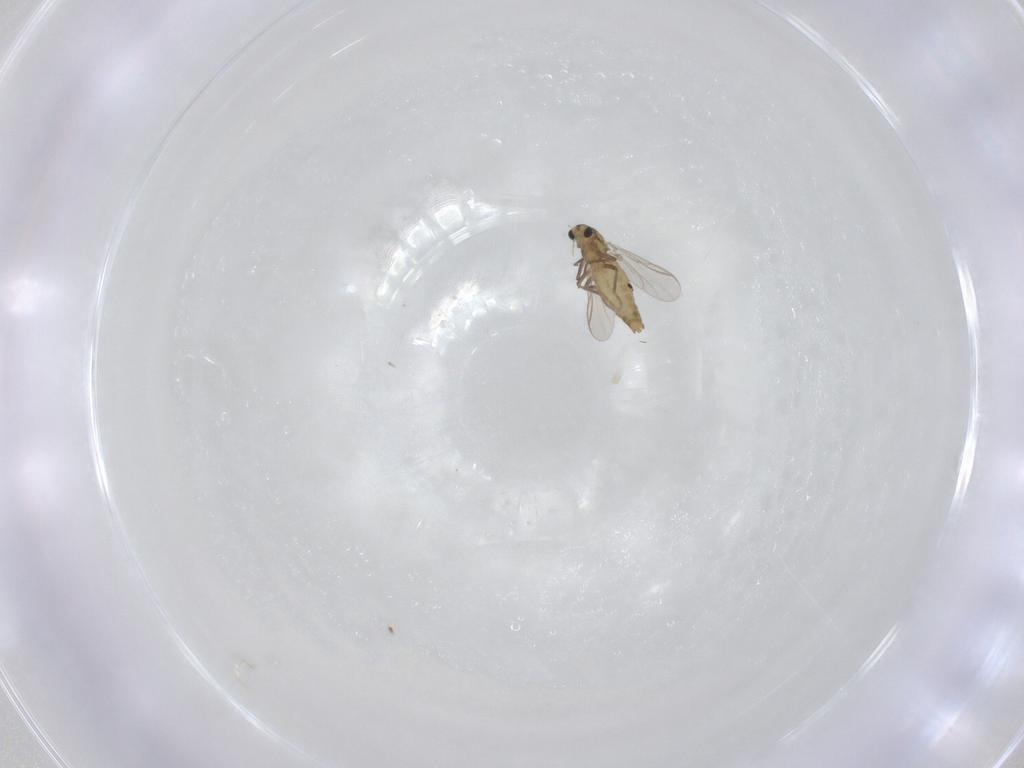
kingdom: Animalia
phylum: Arthropoda
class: Insecta
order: Diptera
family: Chironomidae
